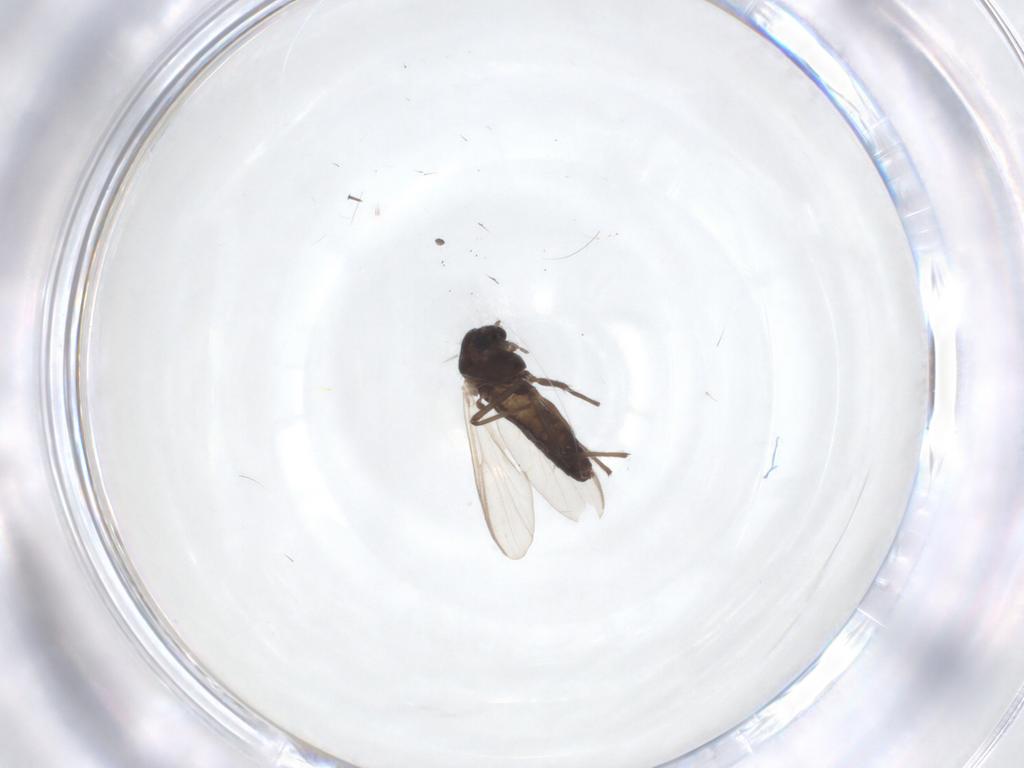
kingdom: Animalia
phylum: Arthropoda
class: Insecta
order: Diptera
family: Chironomidae
